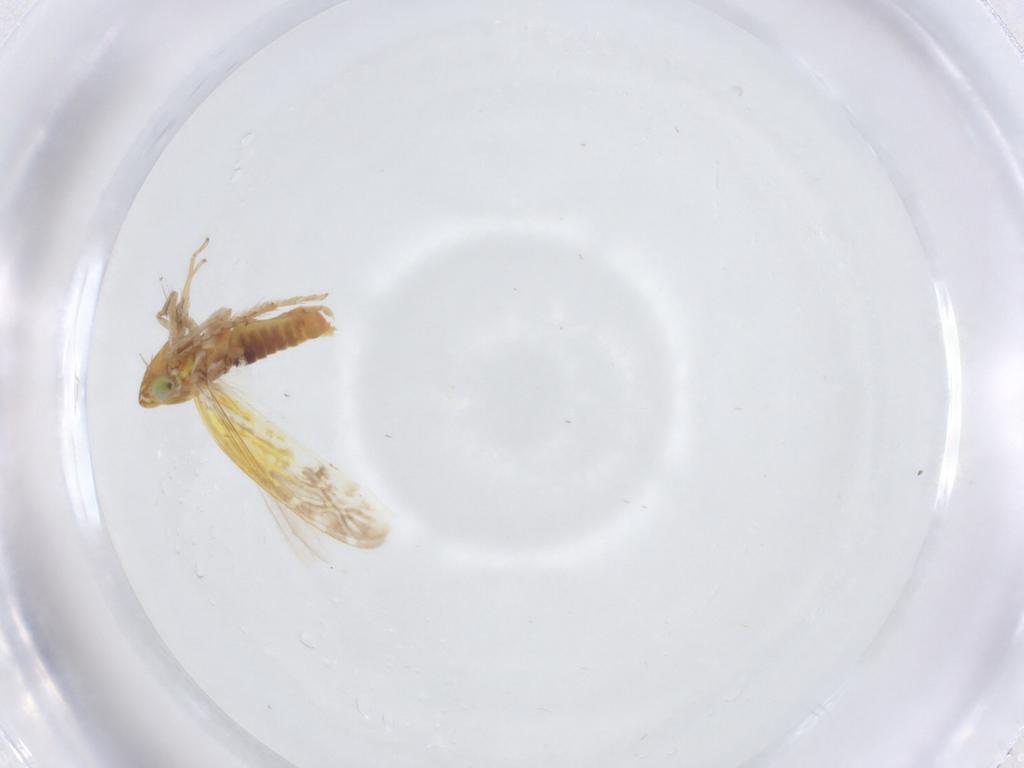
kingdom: Animalia
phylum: Arthropoda
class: Insecta
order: Hemiptera
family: Cicadellidae
